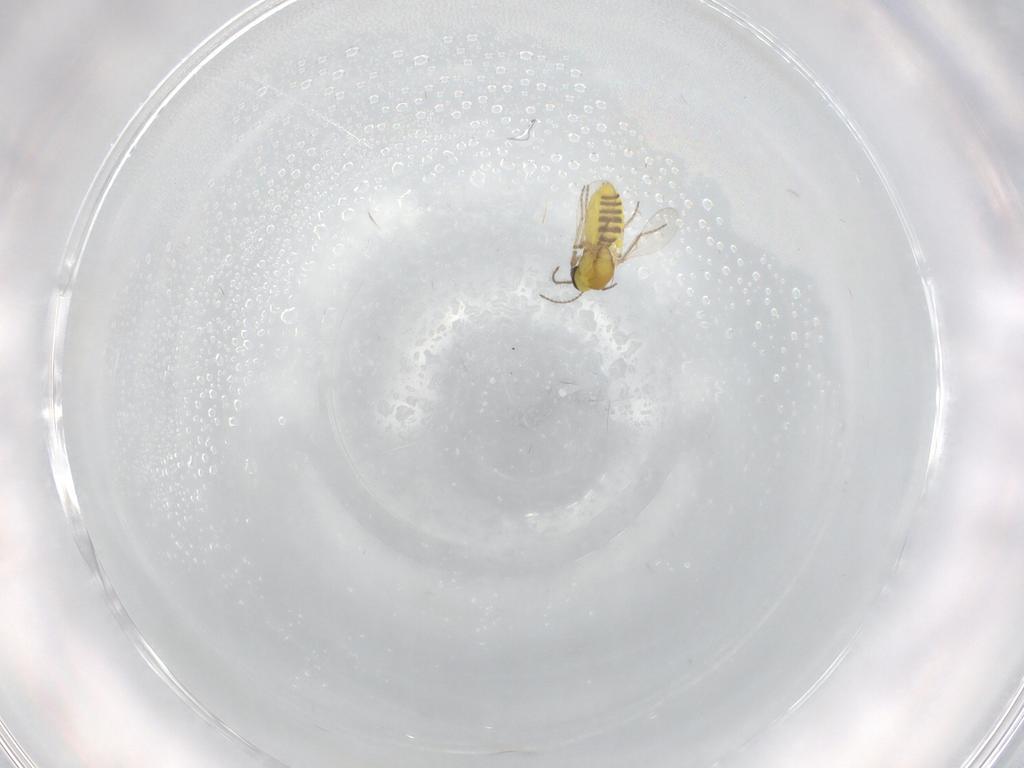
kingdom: Animalia
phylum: Arthropoda
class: Insecta
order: Diptera
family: Ceratopogonidae
